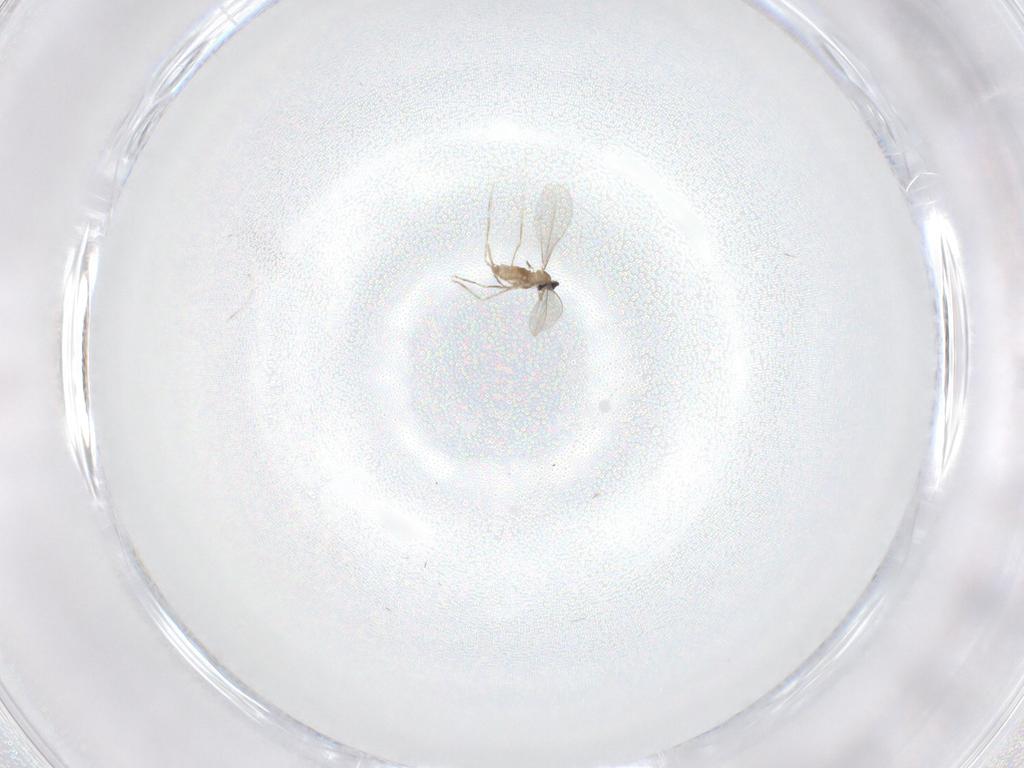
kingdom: Animalia
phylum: Arthropoda
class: Insecta
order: Diptera
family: Cecidomyiidae
